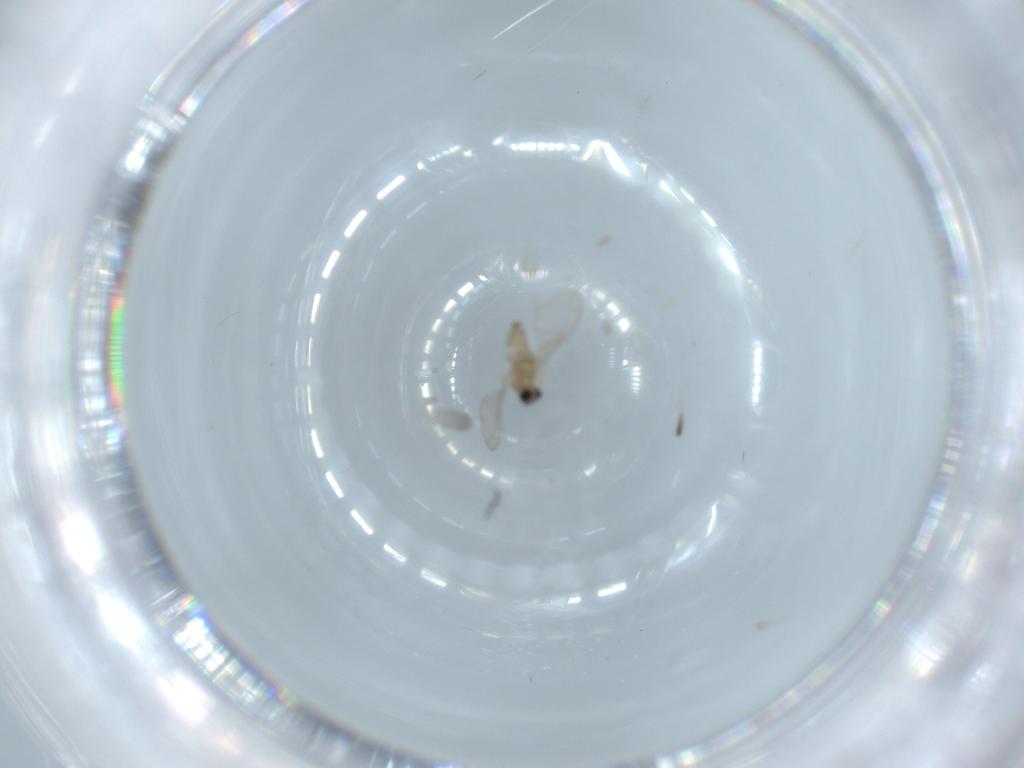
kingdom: Animalia
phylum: Arthropoda
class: Insecta
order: Diptera
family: Cecidomyiidae
